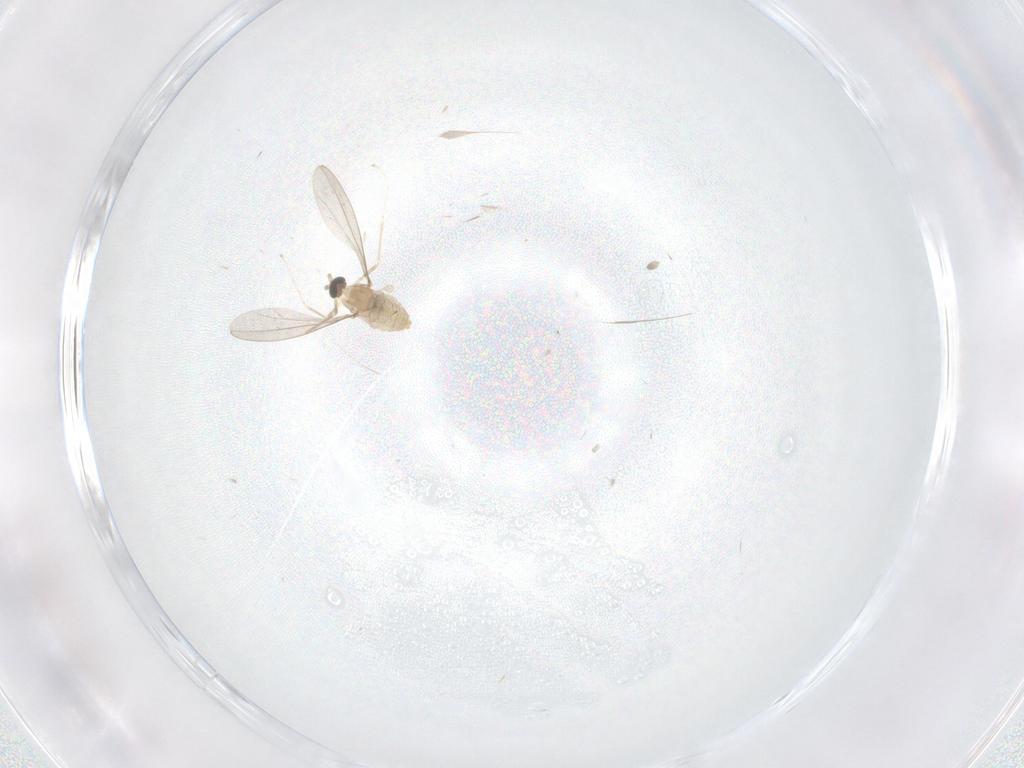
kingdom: Animalia
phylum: Arthropoda
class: Insecta
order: Diptera
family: Cecidomyiidae
